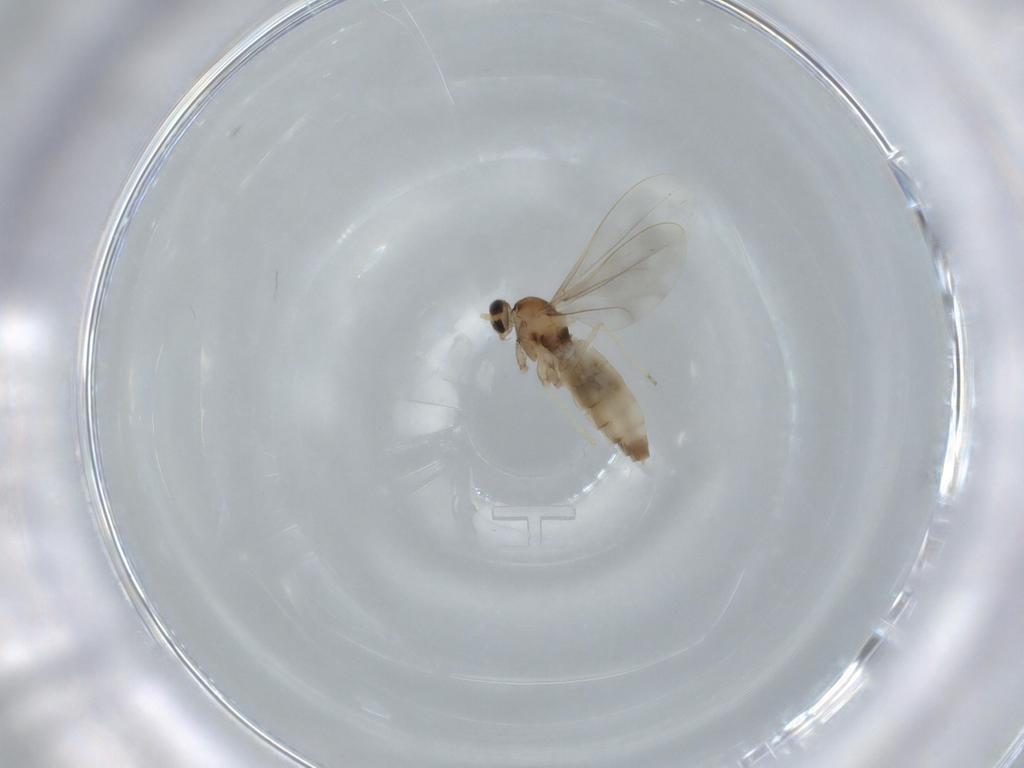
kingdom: Animalia
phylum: Arthropoda
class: Insecta
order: Diptera
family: Cecidomyiidae
